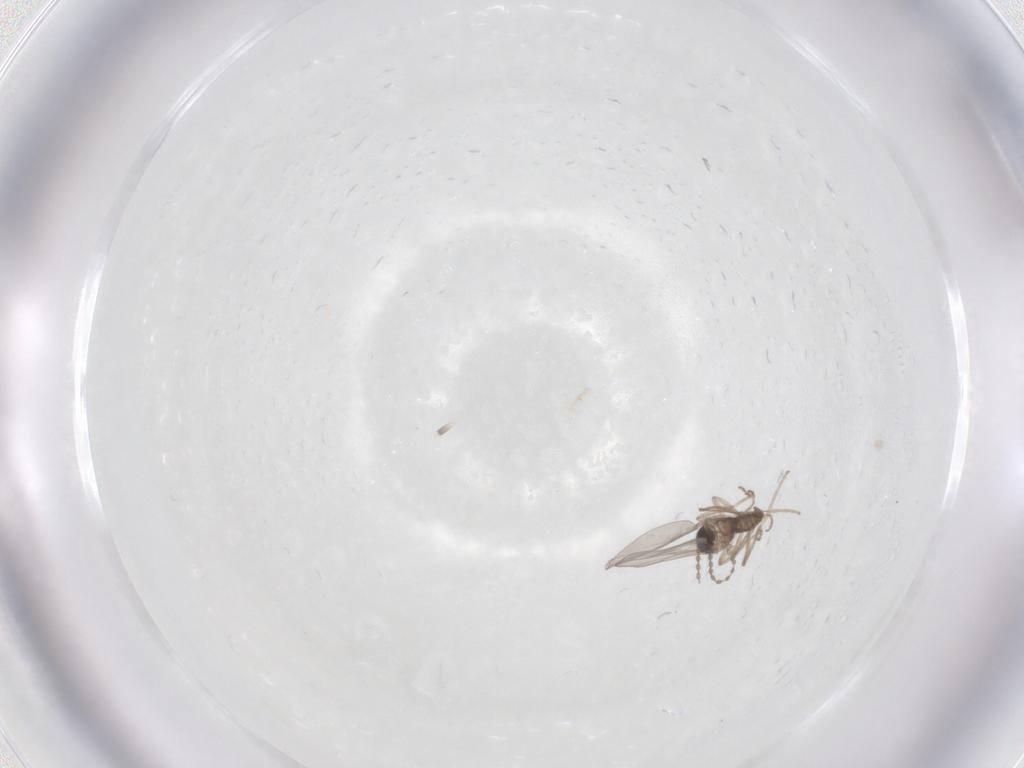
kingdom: Animalia
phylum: Arthropoda
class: Insecta
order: Diptera
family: Cecidomyiidae
